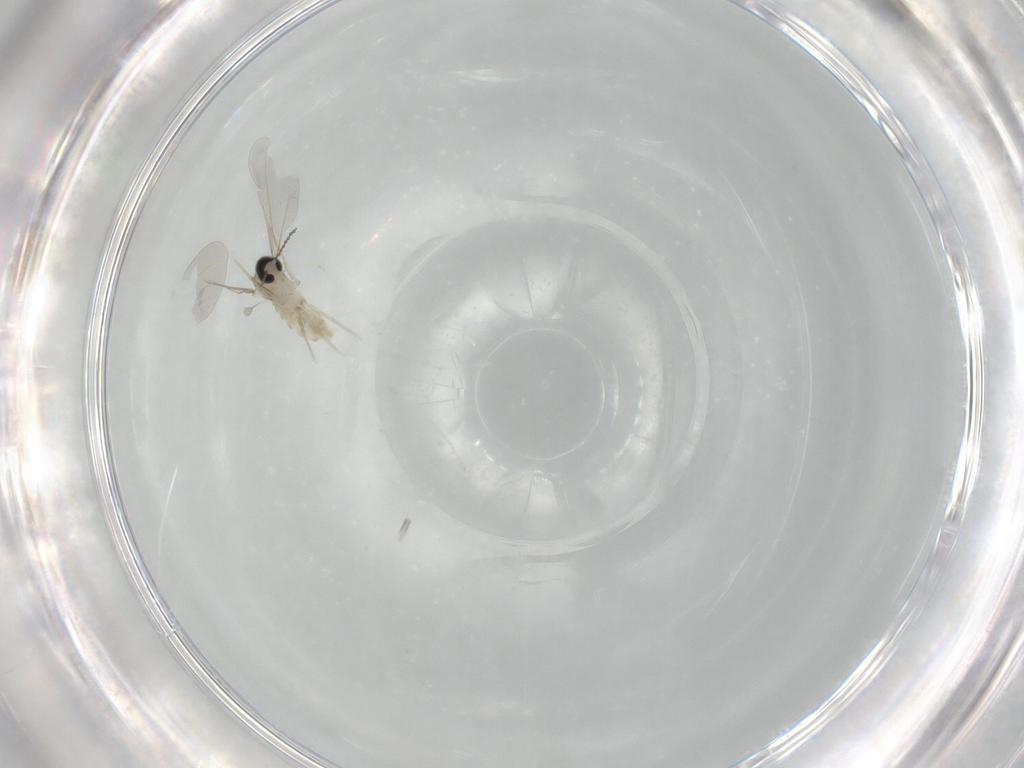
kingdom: Animalia
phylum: Arthropoda
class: Insecta
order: Diptera
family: Cecidomyiidae
